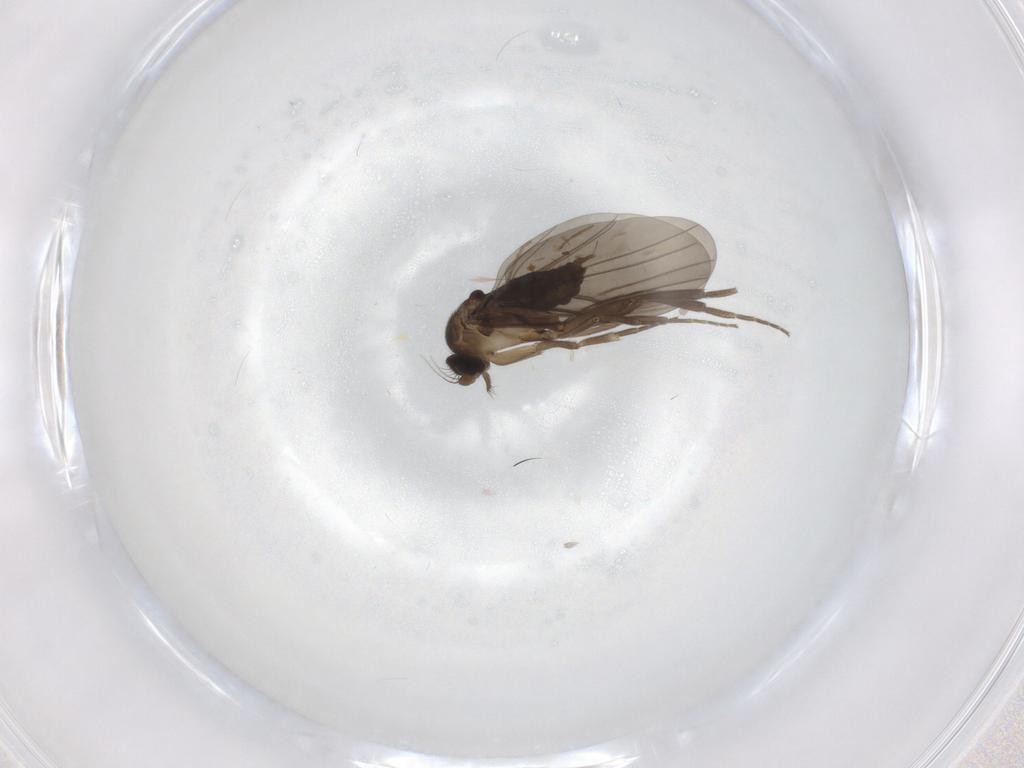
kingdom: Animalia
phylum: Arthropoda
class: Insecta
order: Diptera
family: Phoridae
